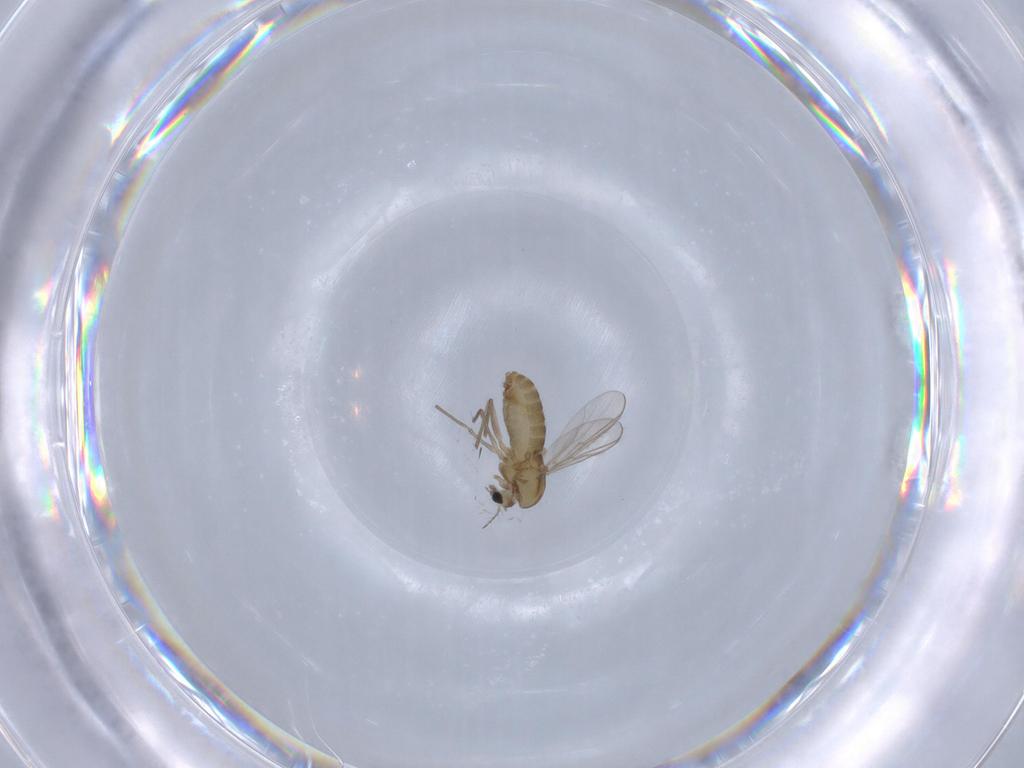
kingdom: Animalia
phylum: Arthropoda
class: Insecta
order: Diptera
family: Chironomidae
